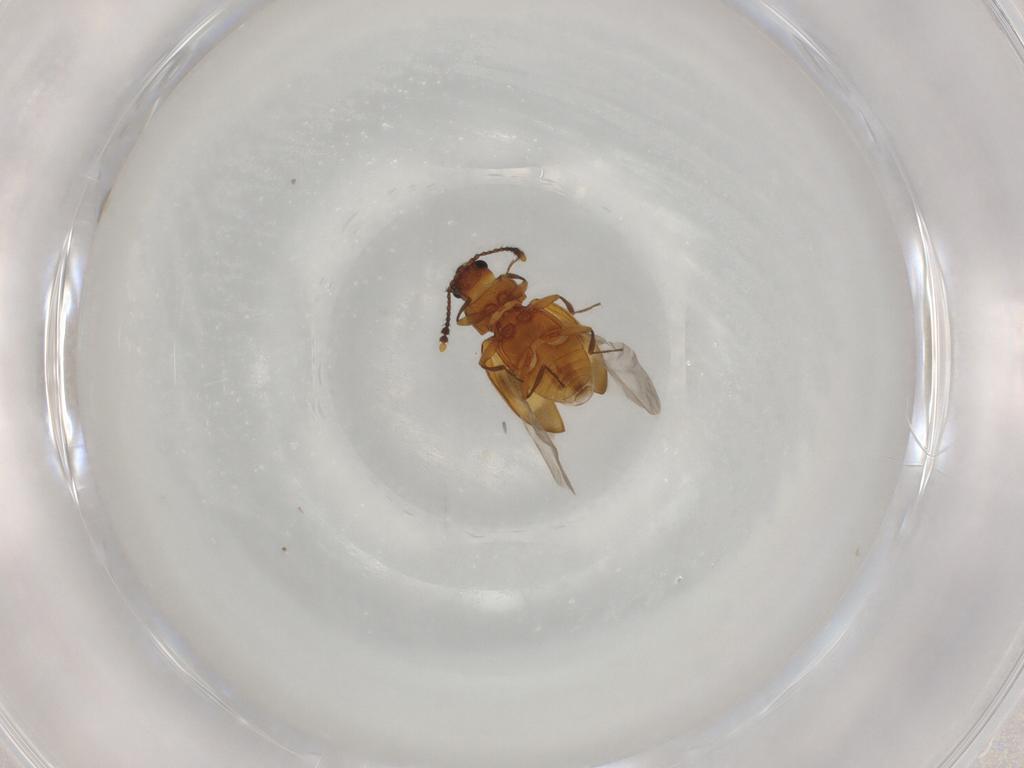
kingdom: Animalia
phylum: Arthropoda
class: Insecta
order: Coleoptera
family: Erotylidae
